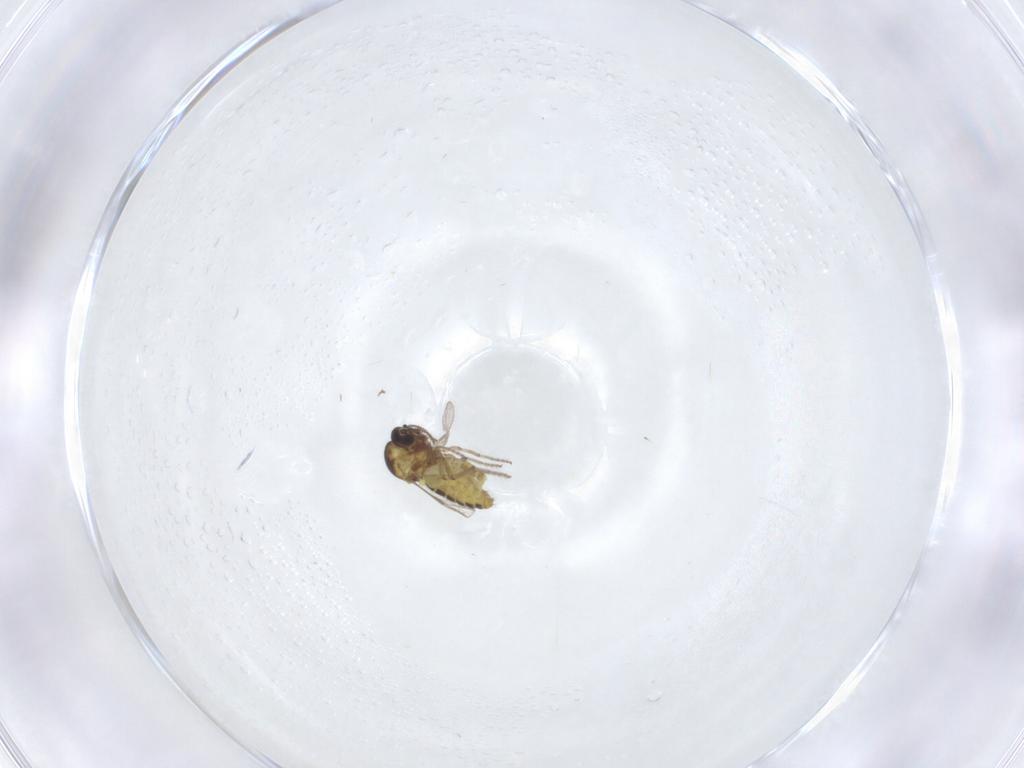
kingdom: Animalia
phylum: Arthropoda
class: Insecta
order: Diptera
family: Ceratopogonidae
